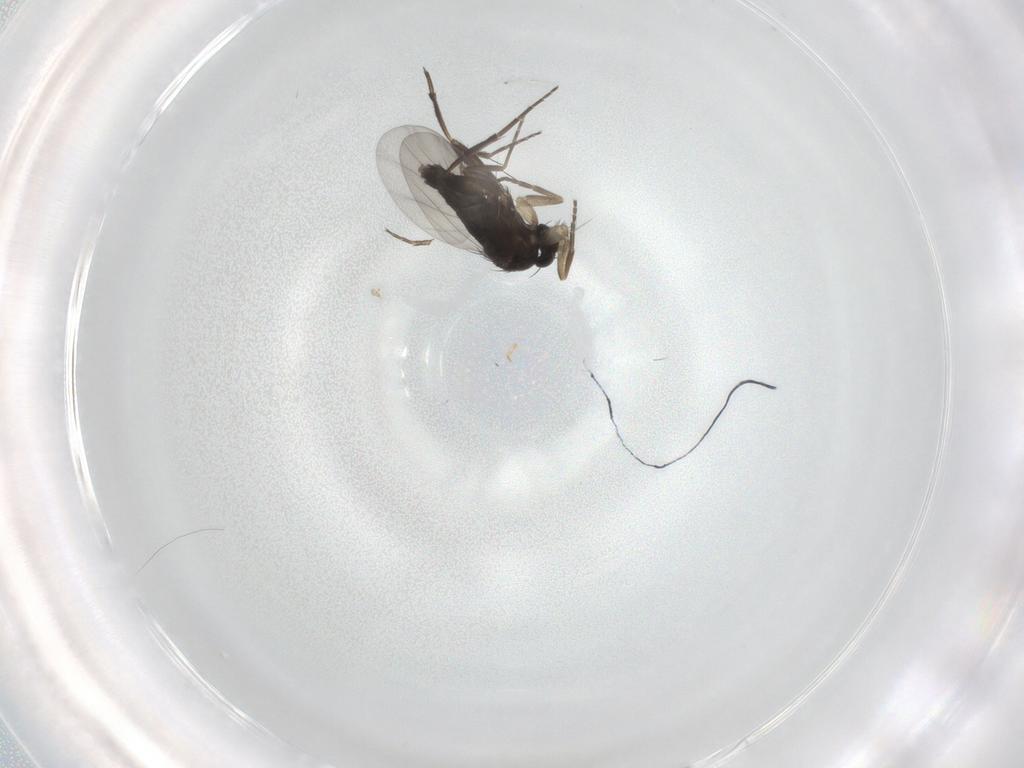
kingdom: Animalia
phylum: Arthropoda
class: Insecta
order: Diptera
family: Phoridae
